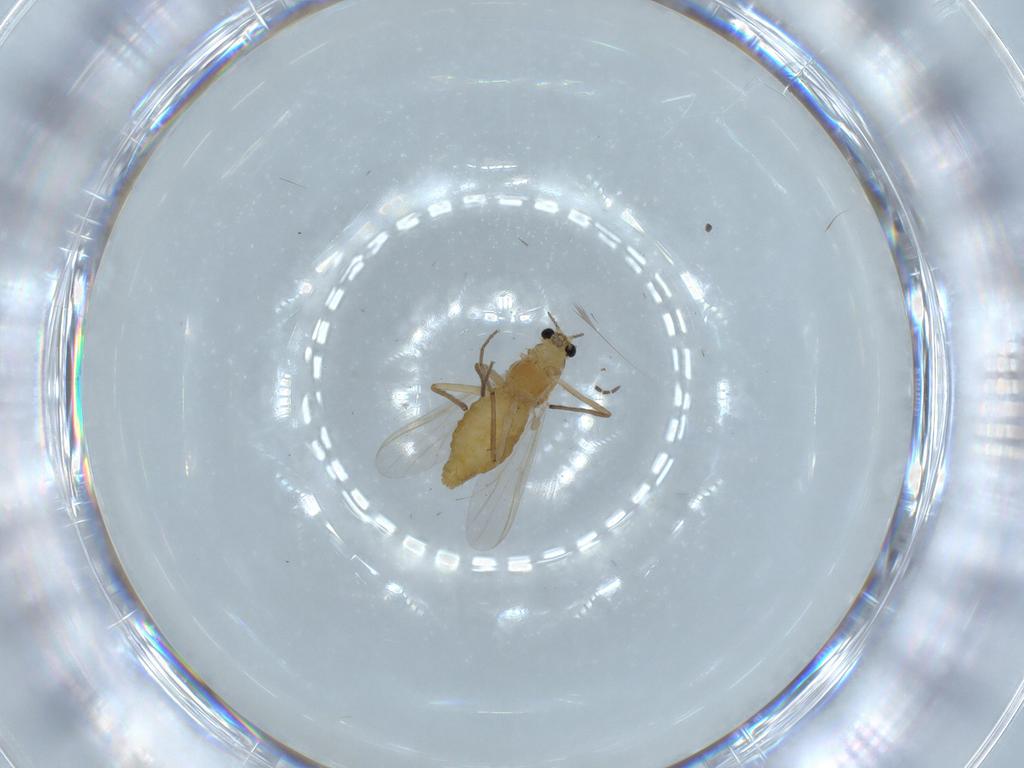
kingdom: Animalia
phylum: Arthropoda
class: Insecta
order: Diptera
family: Chironomidae
